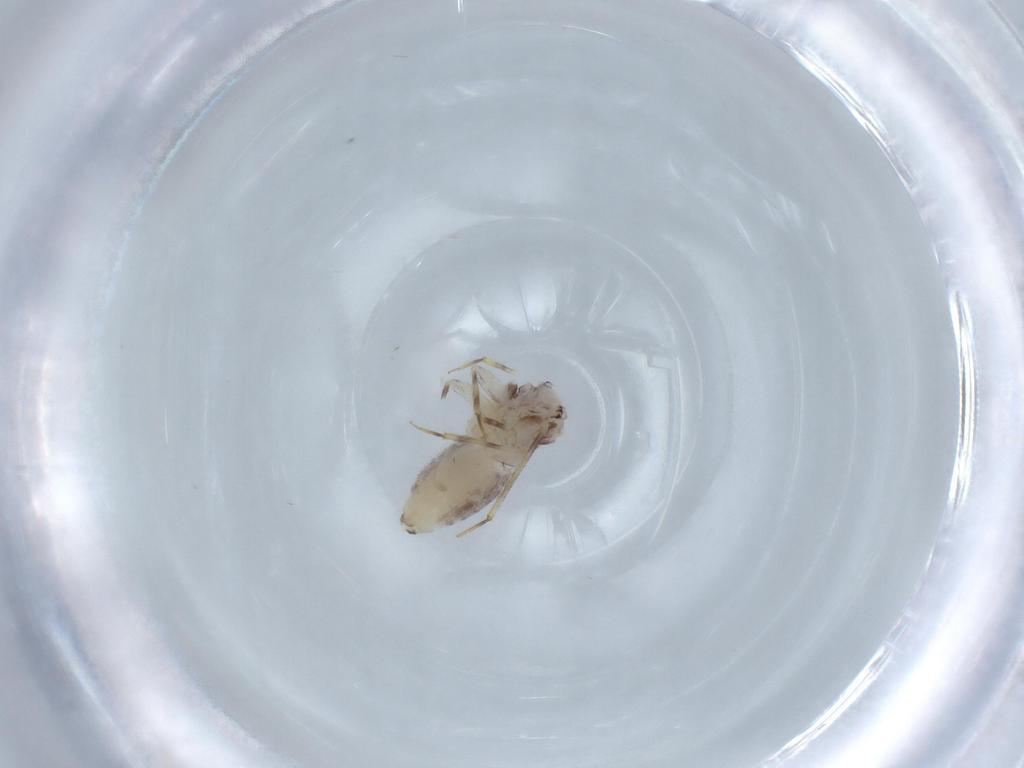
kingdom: Animalia
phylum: Arthropoda
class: Insecta
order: Psocodea
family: Lepidopsocidae
